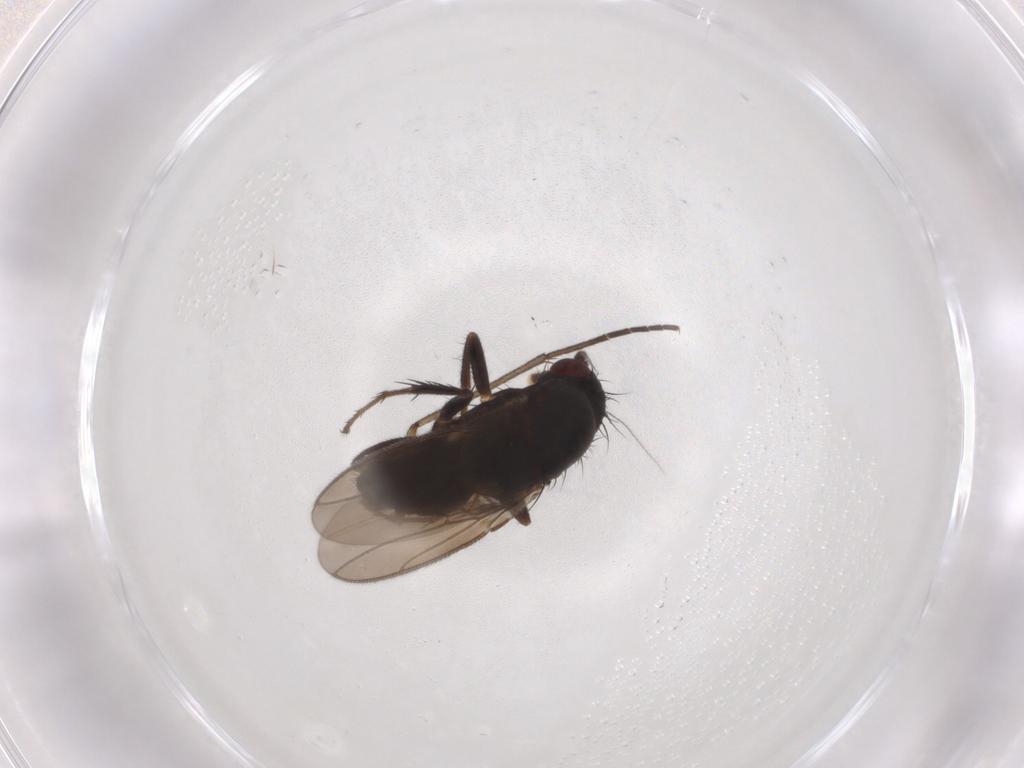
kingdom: Animalia
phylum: Arthropoda
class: Insecta
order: Diptera
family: Sphaeroceridae
